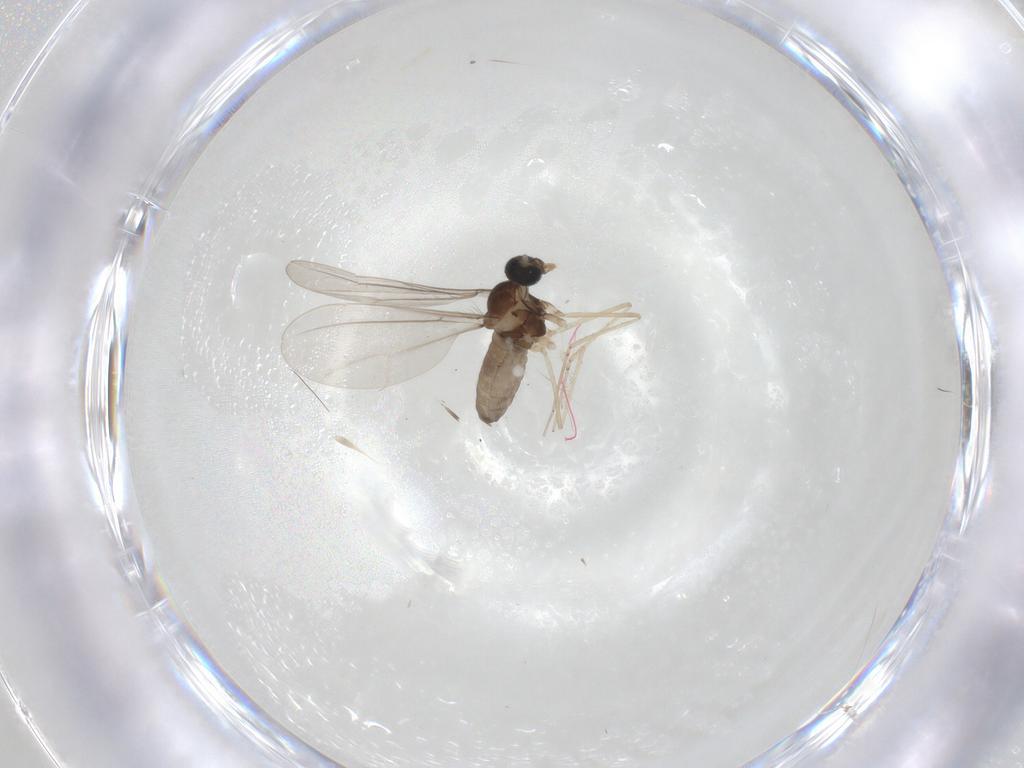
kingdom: Animalia
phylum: Arthropoda
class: Insecta
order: Diptera
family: Cecidomyiidae
